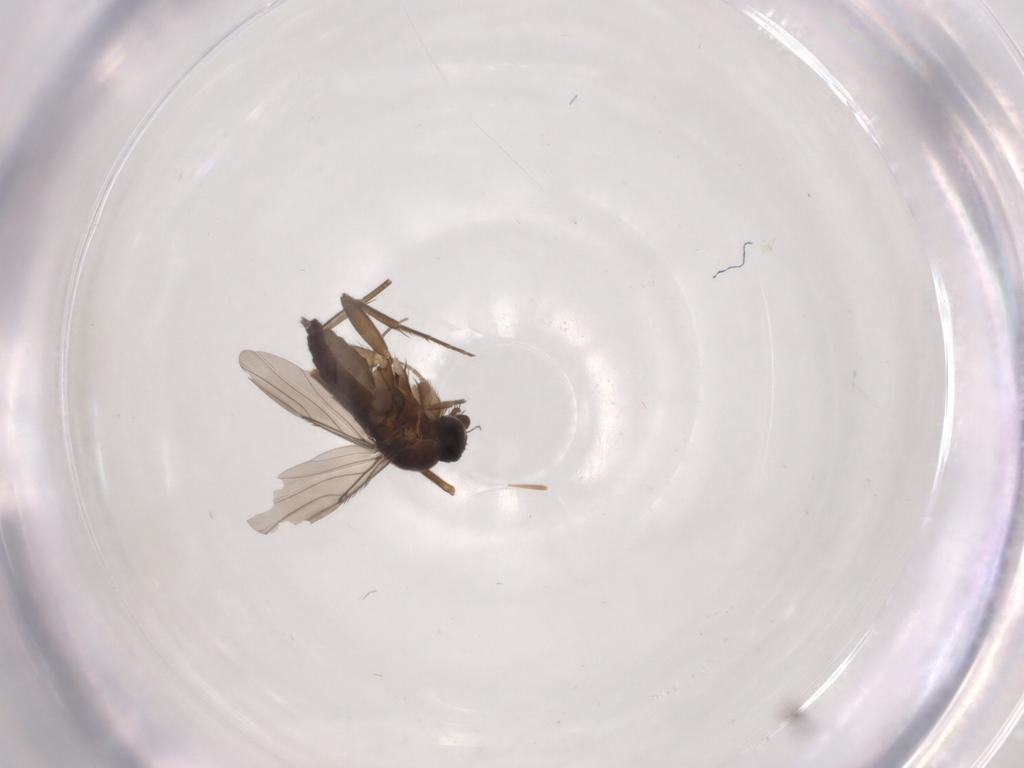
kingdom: Animalia
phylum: Arthropoda
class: Insecta
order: Diptera
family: Phoridae
